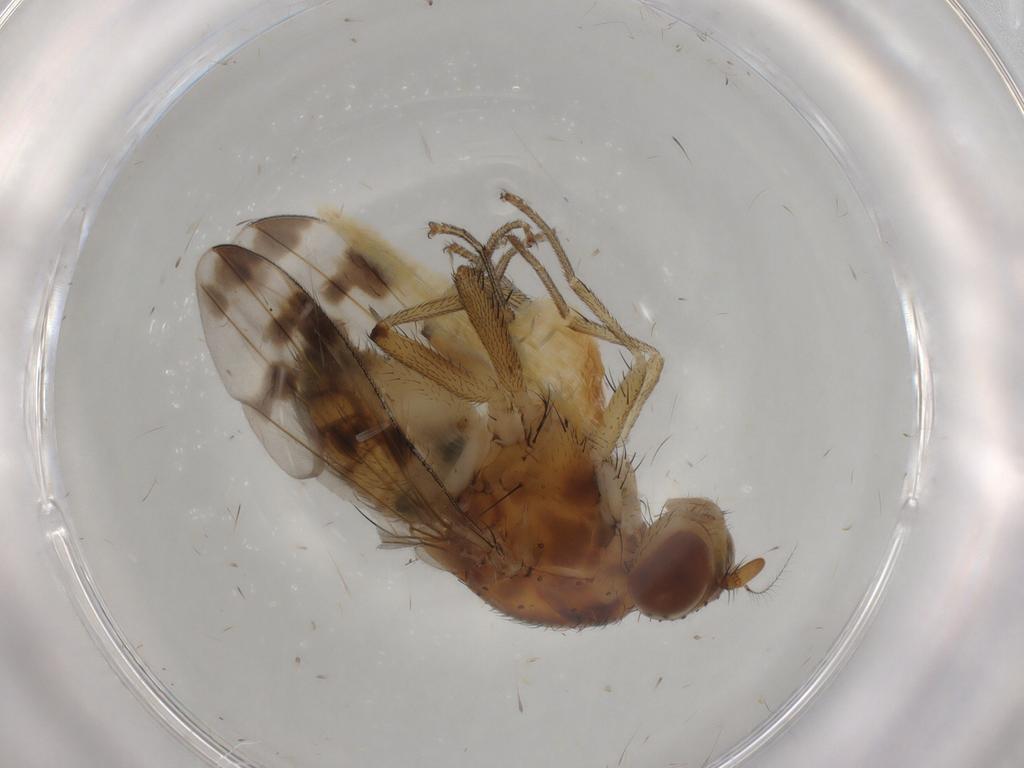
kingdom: Animalia
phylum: Arthropoda
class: Insecta
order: Diptera
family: Lauxaniidae
